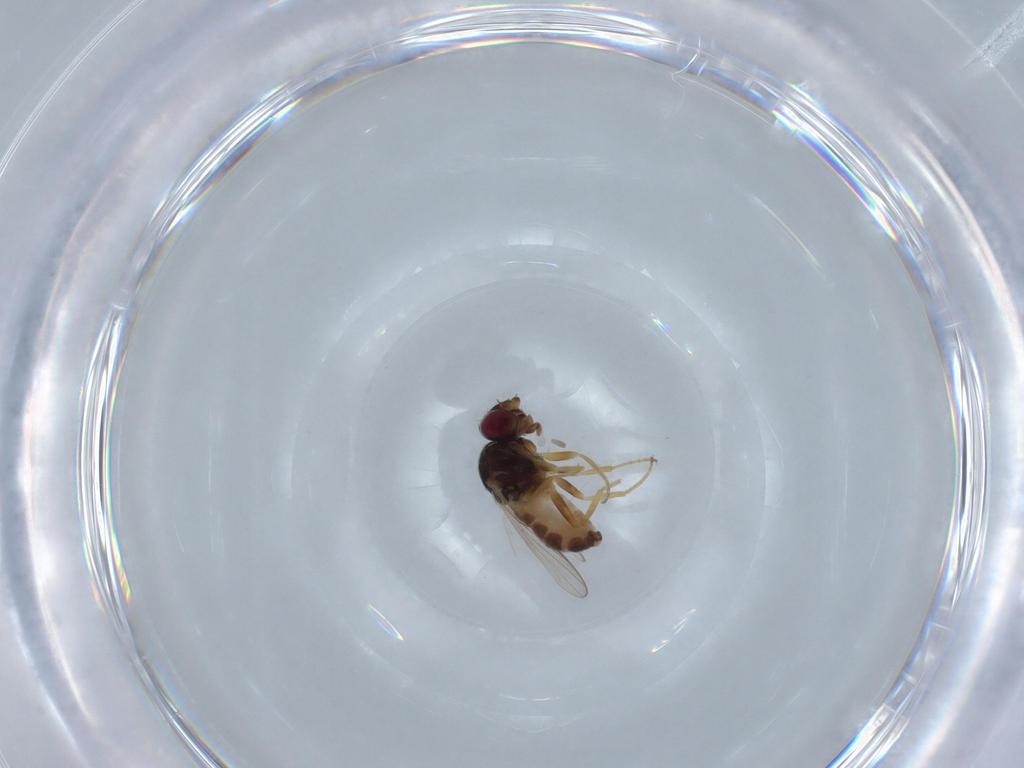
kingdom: Animalia
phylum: Arthropoda
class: Insecta
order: Diptera
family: Chloropidae
